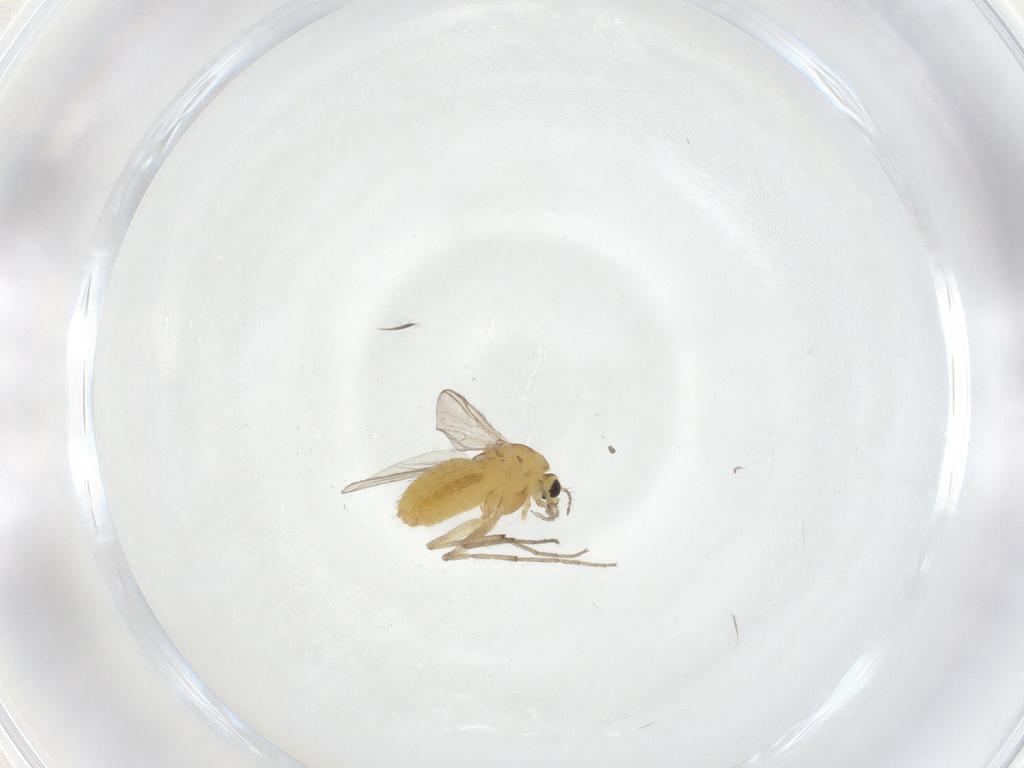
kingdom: Animalia
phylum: Arthropoda
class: Insecta
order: Diptera
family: Chironomidae
